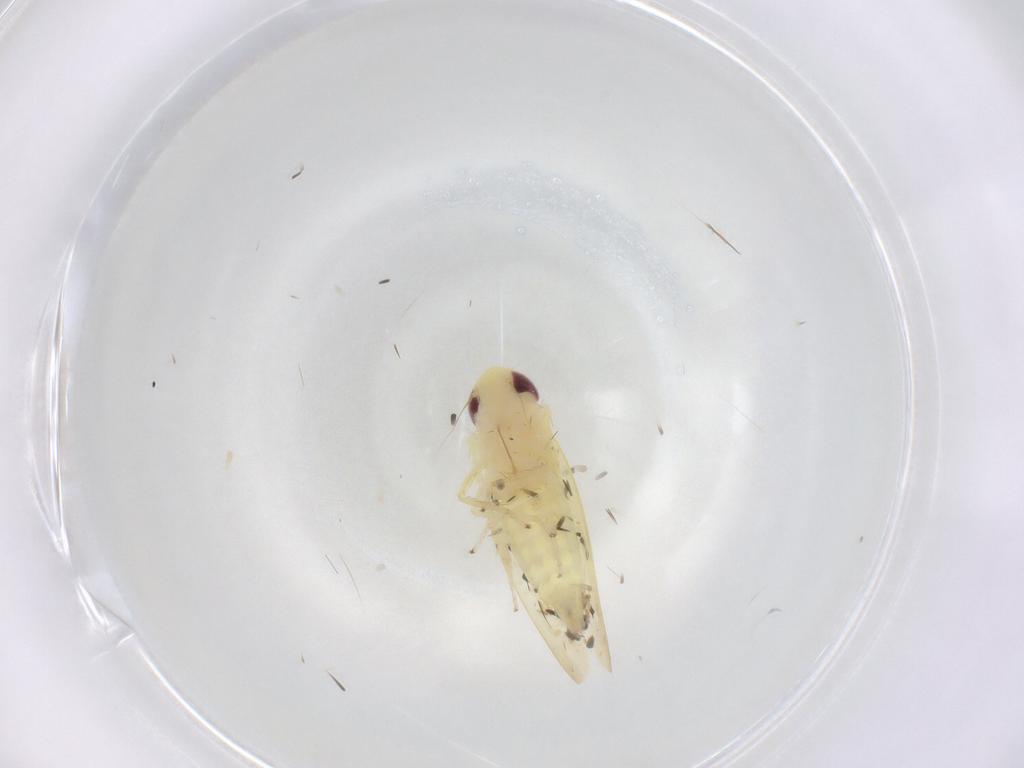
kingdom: Animalia
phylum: Arthropoda
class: Insecta
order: Hemiptera
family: Cicadellidae
